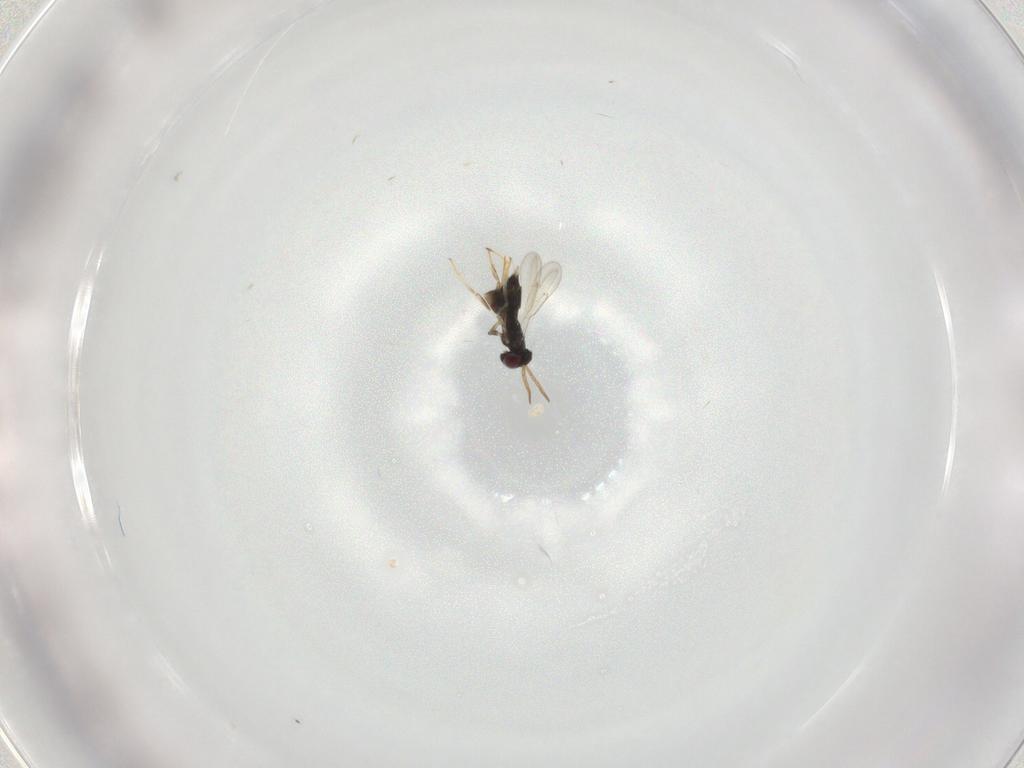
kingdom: Animalia
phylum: Arthropoda
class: Insecta
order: Hymenoptera
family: Aphelinidae
